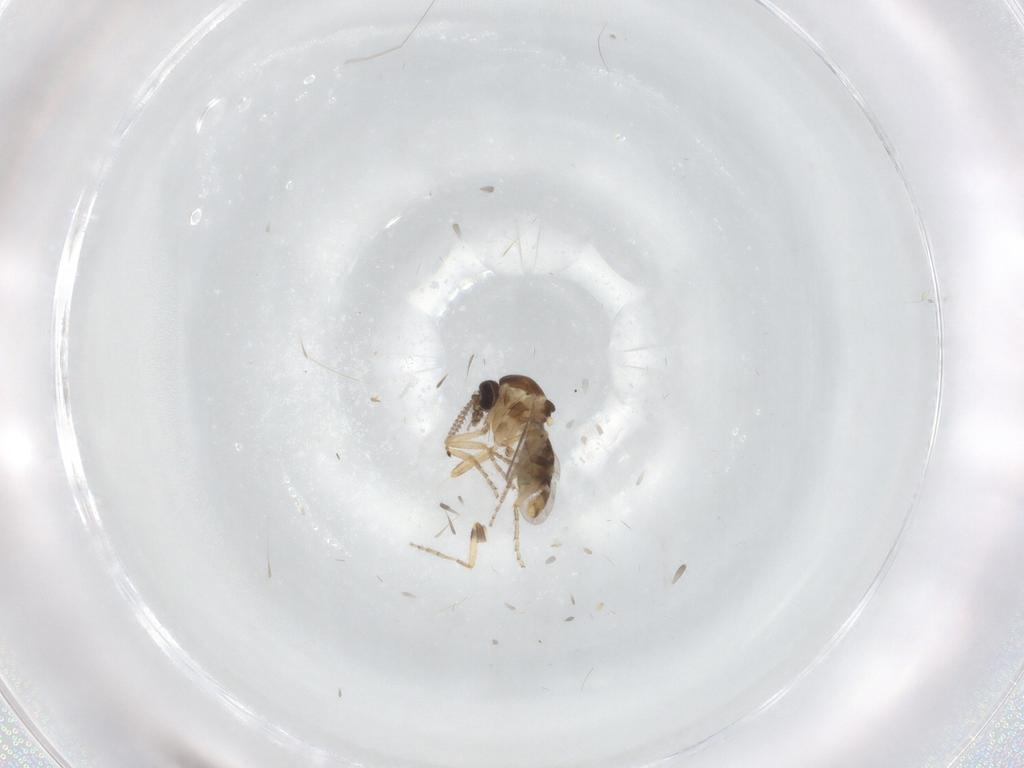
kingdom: Animalia
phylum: Arthropoda
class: Insecta
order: Diptera
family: Ceratopogonidae
